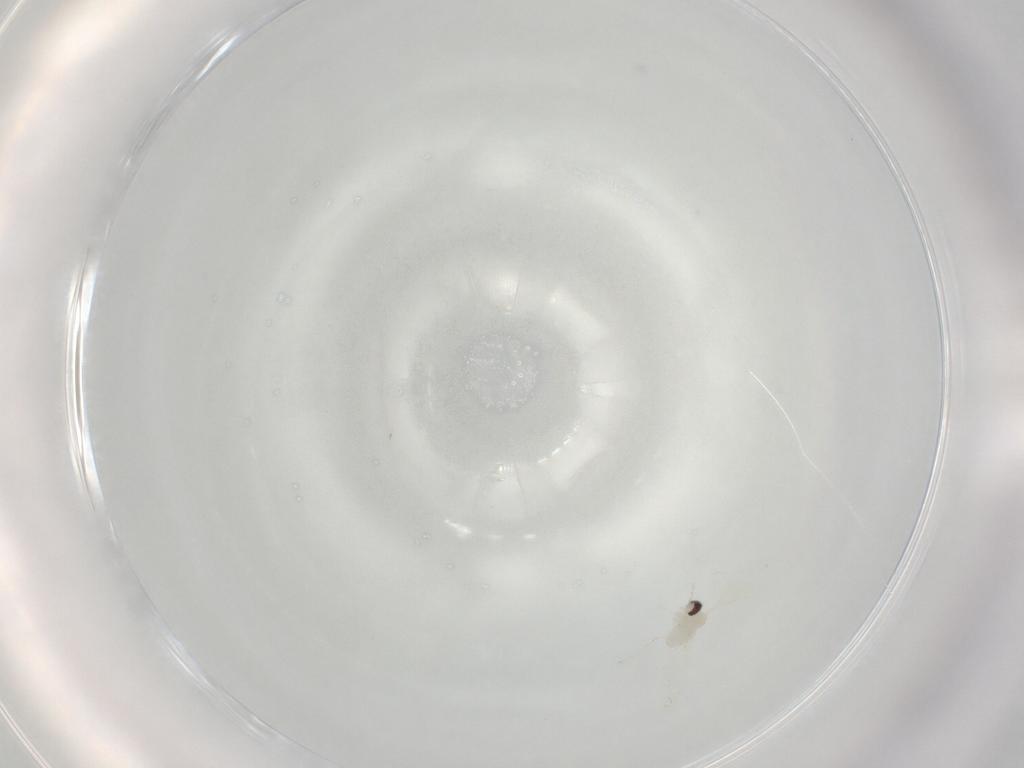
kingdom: Animalia
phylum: Arthropoda
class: Insecta
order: Diptera
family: Cecidomyiidae
